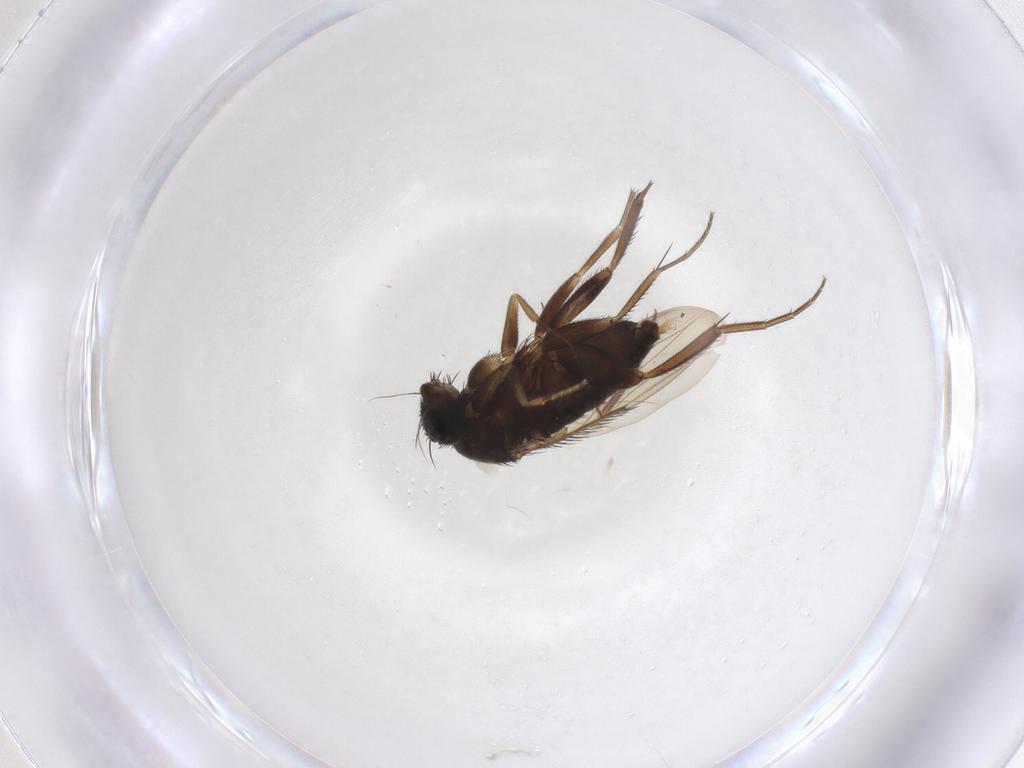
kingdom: Animalia
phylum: Arthropoda
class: Insecta
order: Diptera
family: Phoridae
